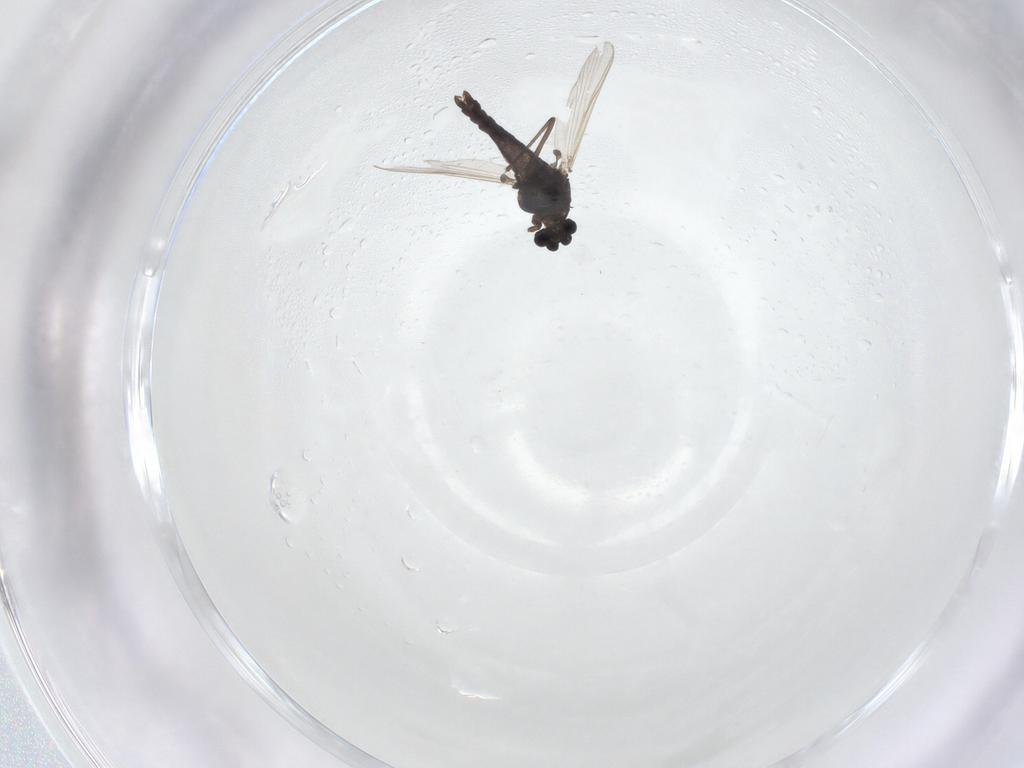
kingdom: Animalia
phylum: Arthropoda
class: Insecta
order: Diptera
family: Chironomidae
